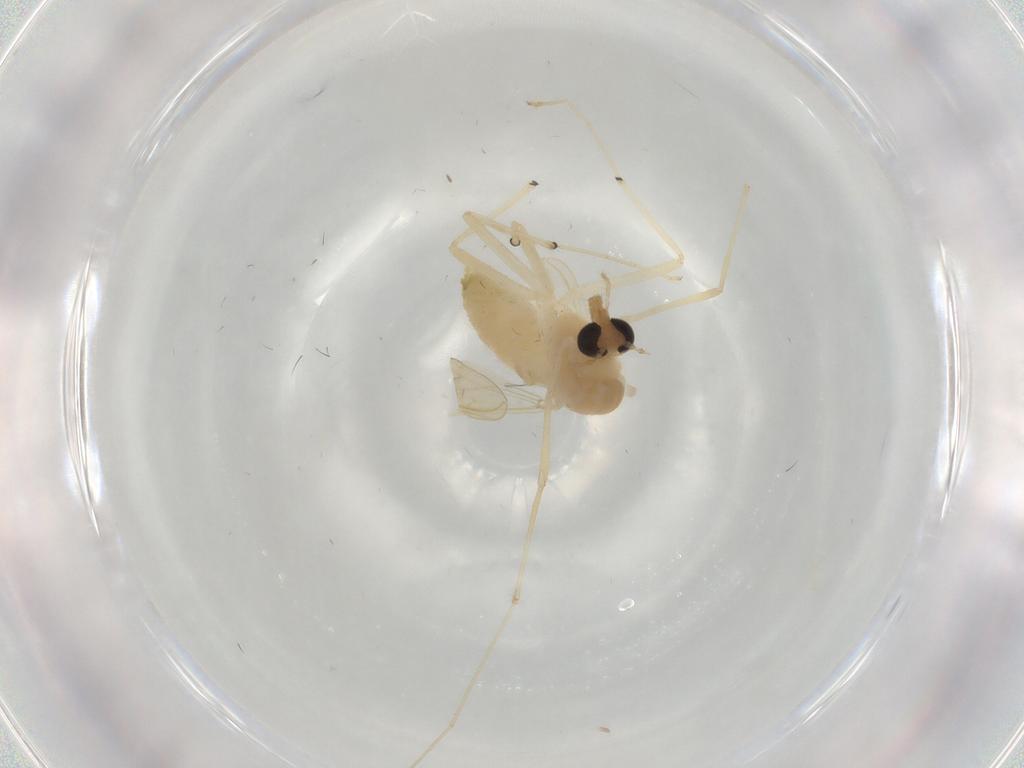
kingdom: Animalia
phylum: Arthropoda
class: Insecta
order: Diptera
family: Chironomidae
